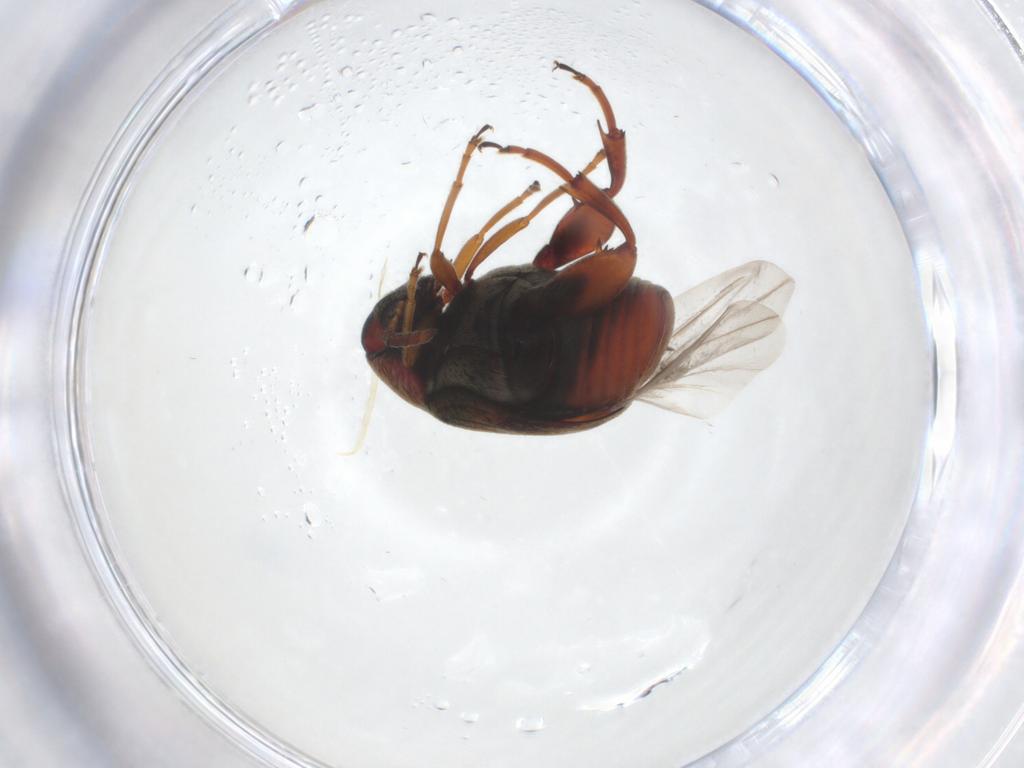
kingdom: Animalia
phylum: Arthropoda
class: Insecta
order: Coleoptera
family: Chrysomelidae
